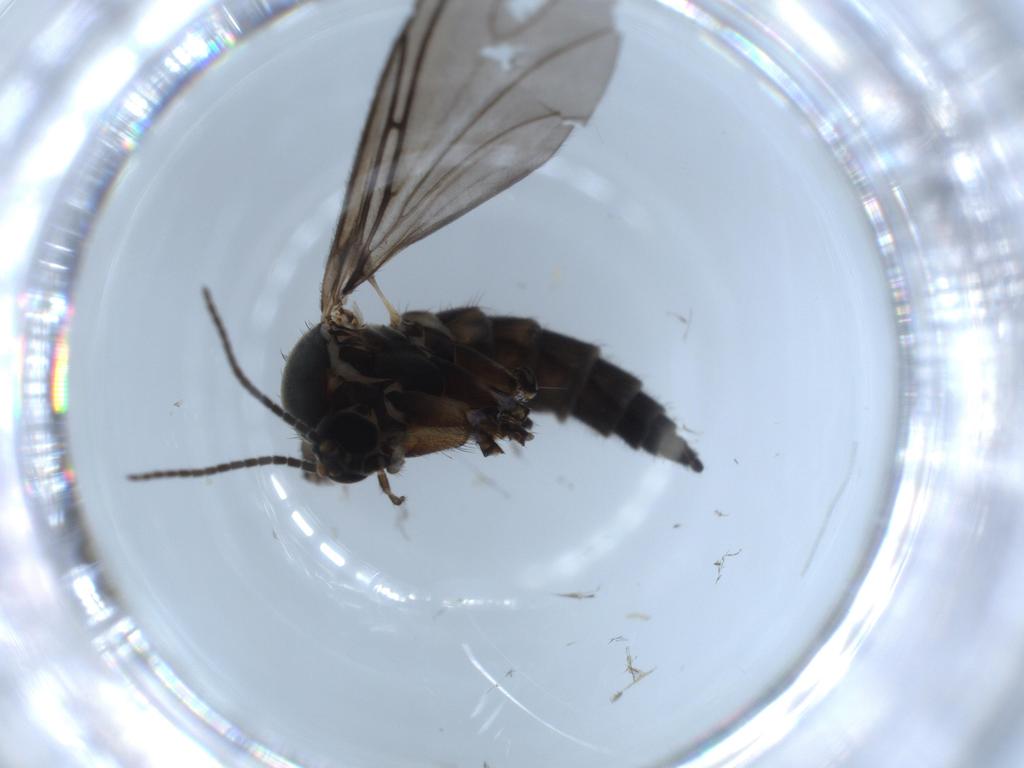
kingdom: Animalia
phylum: Arthropoda
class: Insecta
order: Diptera
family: Sciaridae
